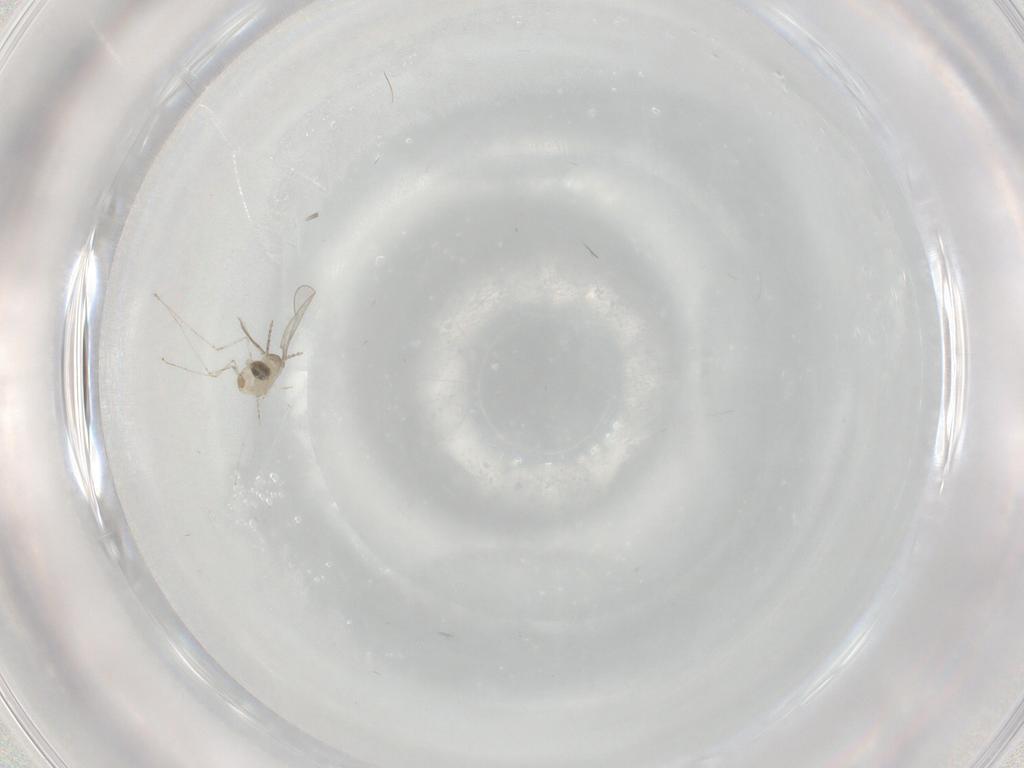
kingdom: Animalia
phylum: Arthropoda
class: Insecta
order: Diptera
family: Cecidomyiidae
